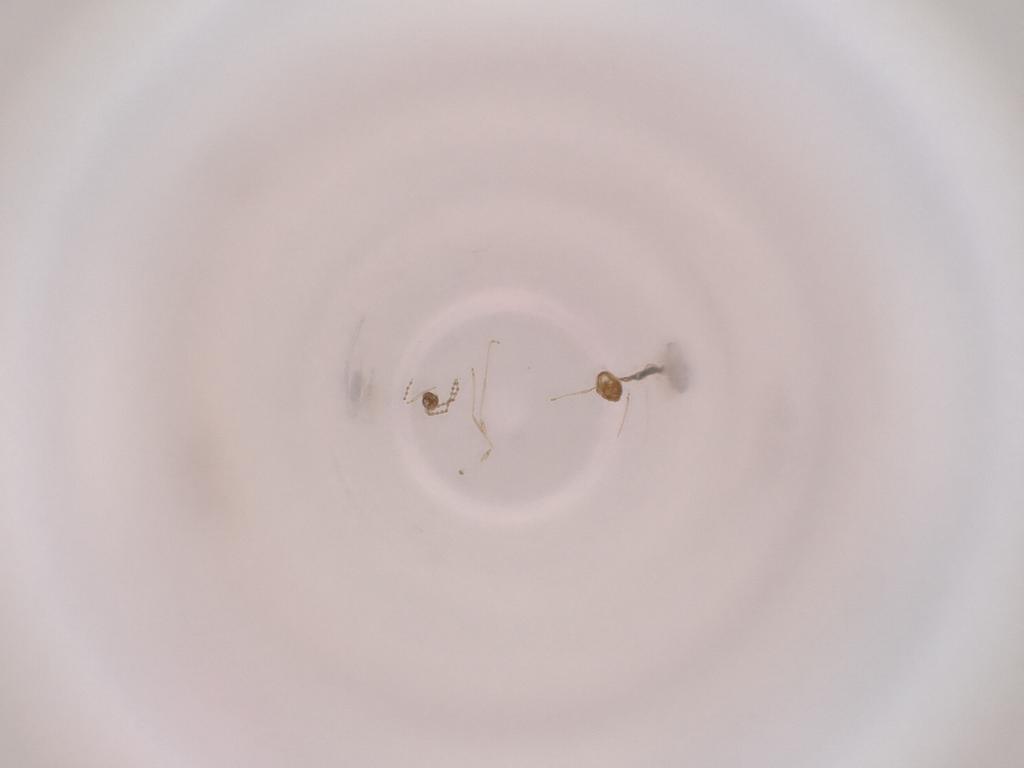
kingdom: Animalia
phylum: Arthropoda
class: Insecta
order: Diptera
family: Cecidomyiidae
